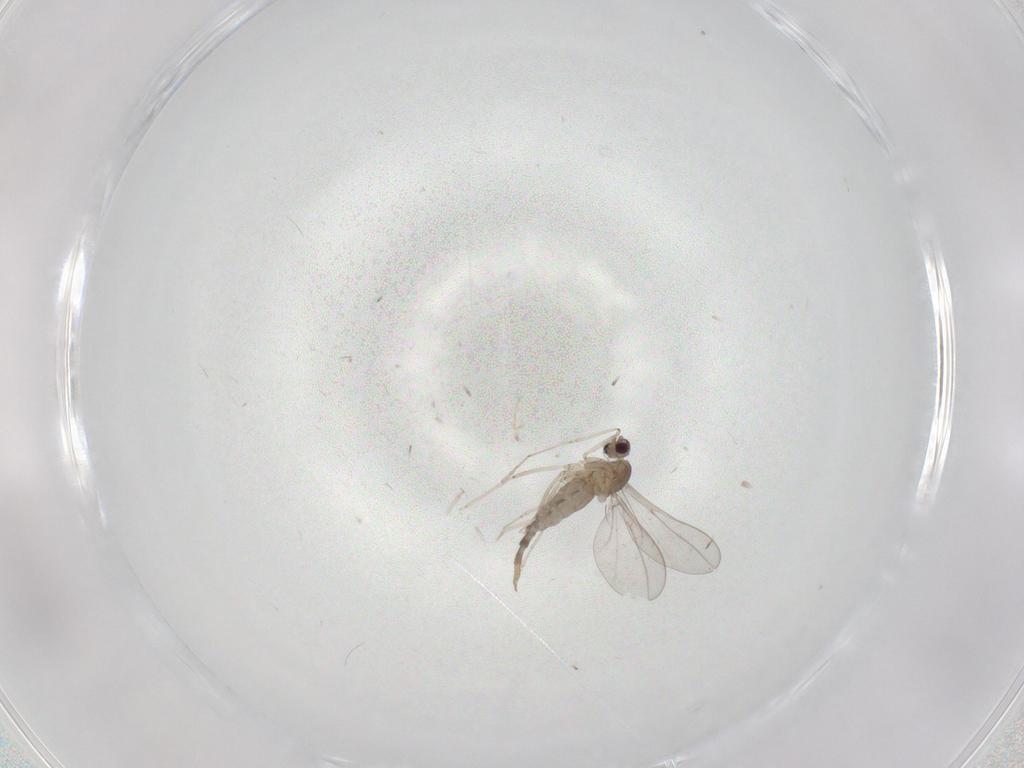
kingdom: Animalia
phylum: Arthropoda
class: Insecta
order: Diptera
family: Cecidomyiidae
